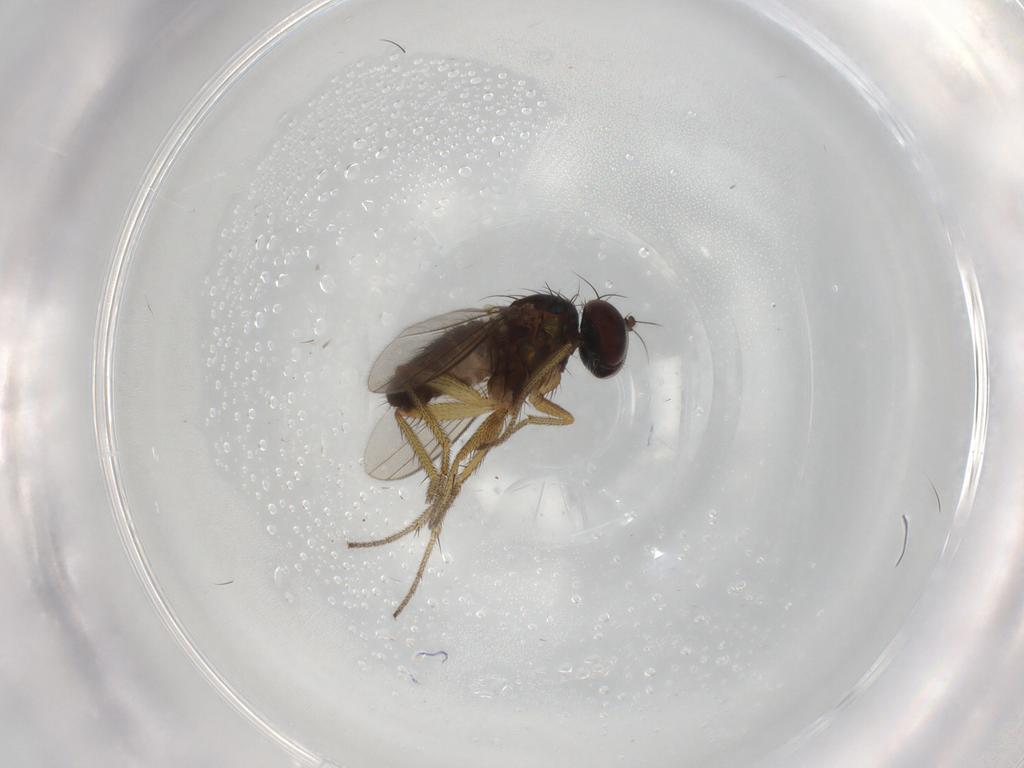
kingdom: Animalia
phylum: Arthropoda
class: Insecta
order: Diptera
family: Dolichopodidae
